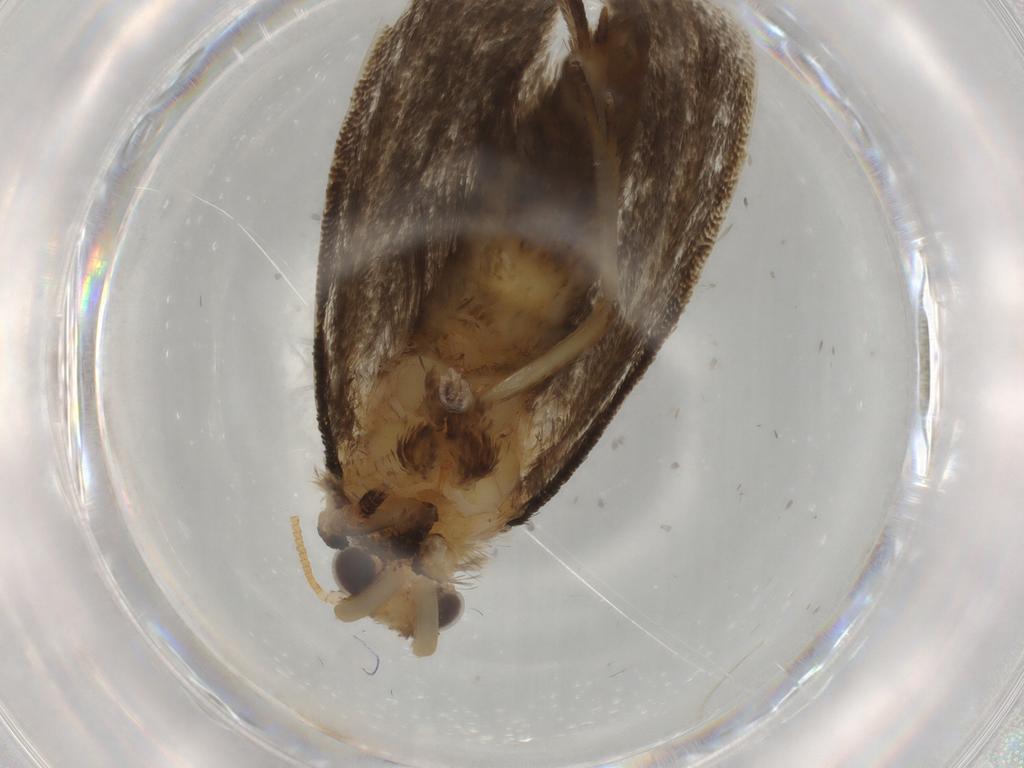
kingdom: Animalia
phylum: Arthropoda
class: Insecta
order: Lepidoptera
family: Tineidae
